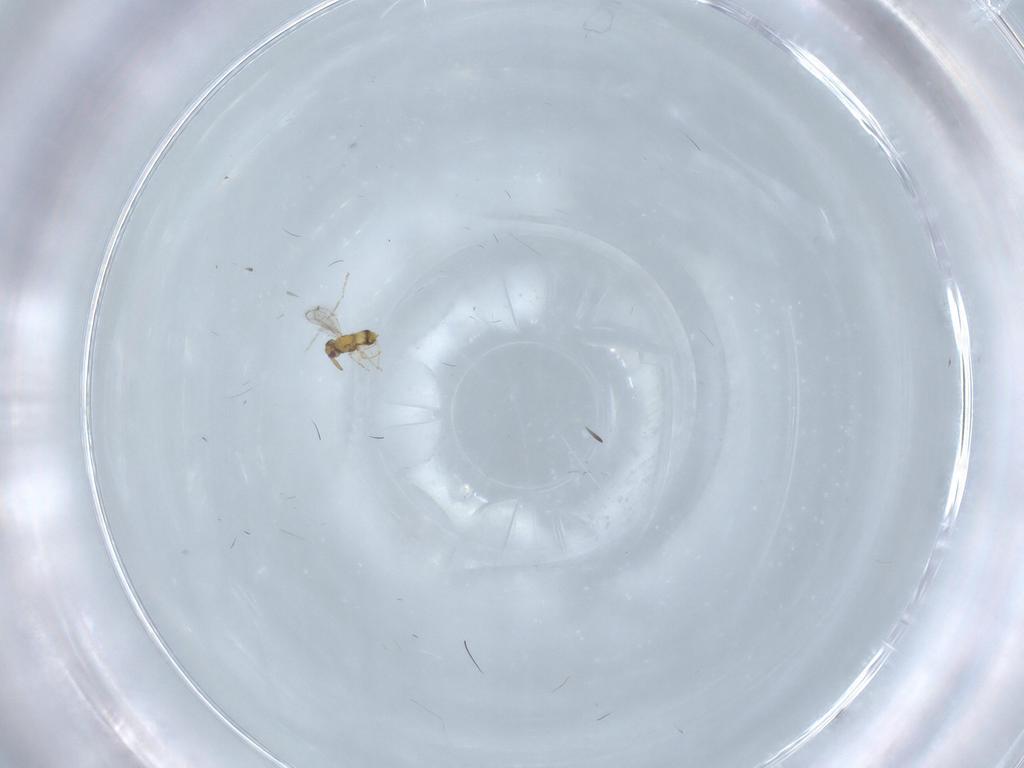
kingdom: Animalia
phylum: Arthropoda
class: Insecta
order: Hymenoptera
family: Aphelinidae
